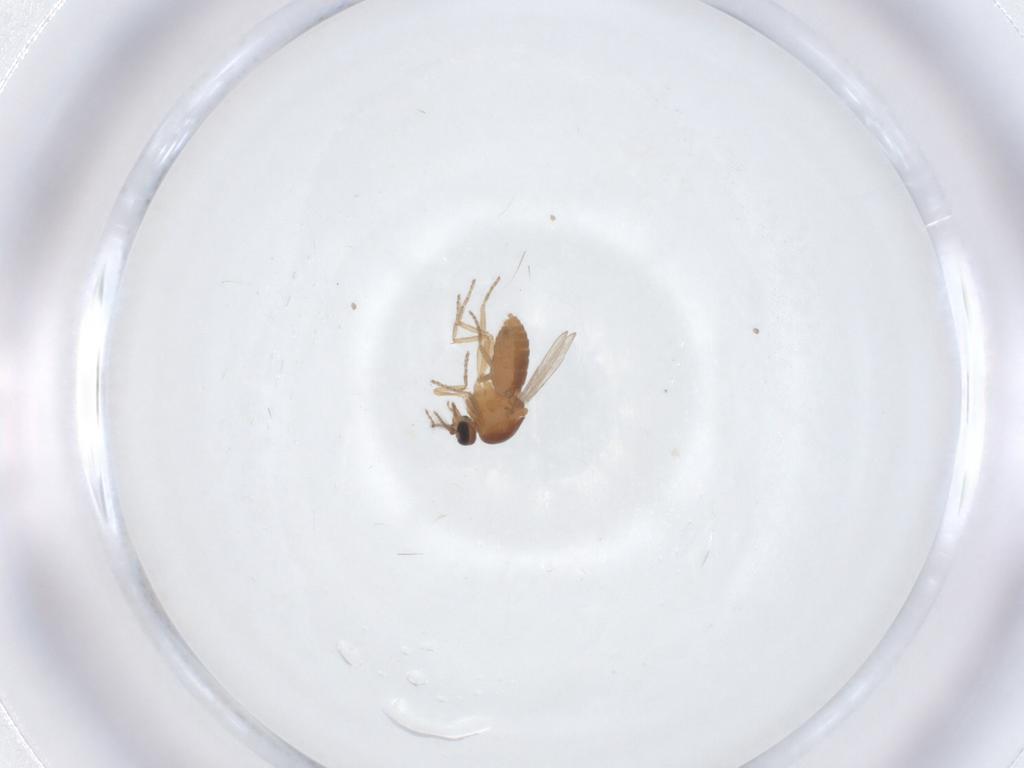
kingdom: Animalia
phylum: Arthropoda
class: Insecta
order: Diptera
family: Ceratopogonidae
